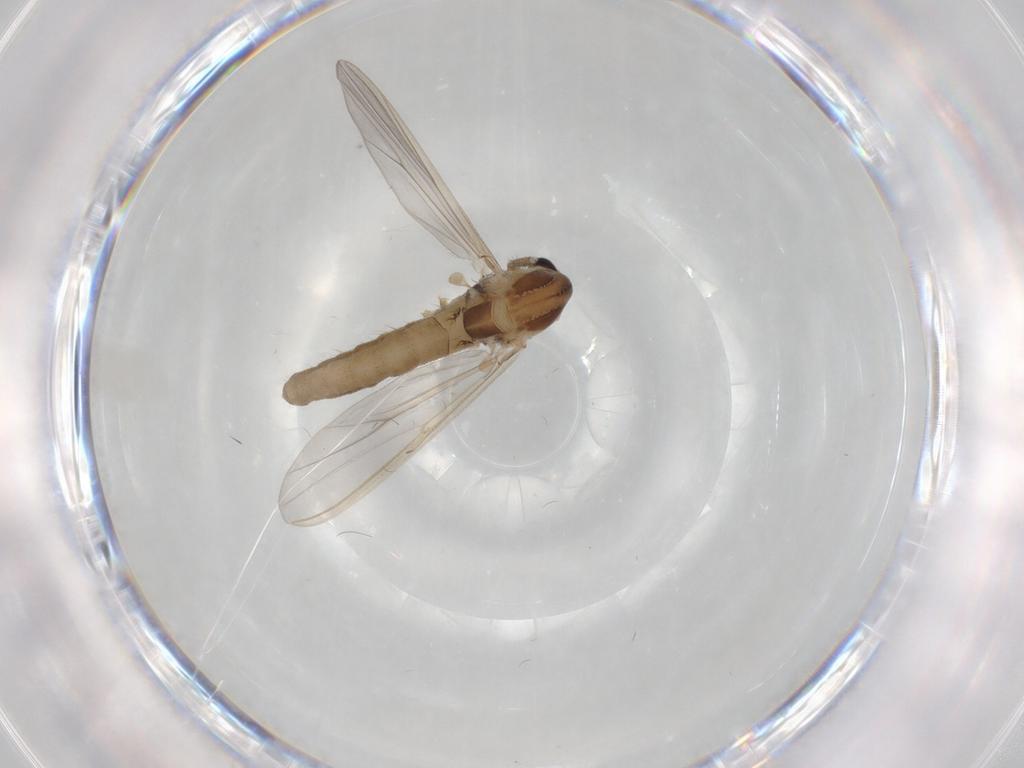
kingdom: Animalia
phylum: Arthropoda
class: Insecta
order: Diptera
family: Chironomidae
